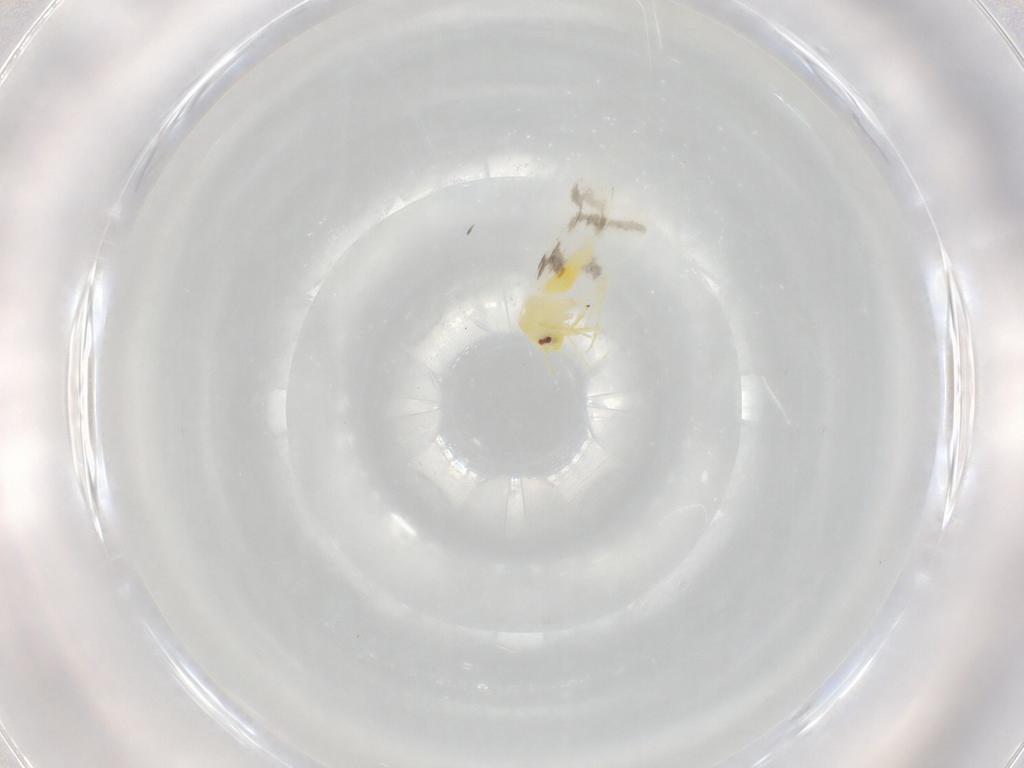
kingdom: Animalia
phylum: Arthropoda
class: Insecta
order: Hemiptera
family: Aleyrodidae
